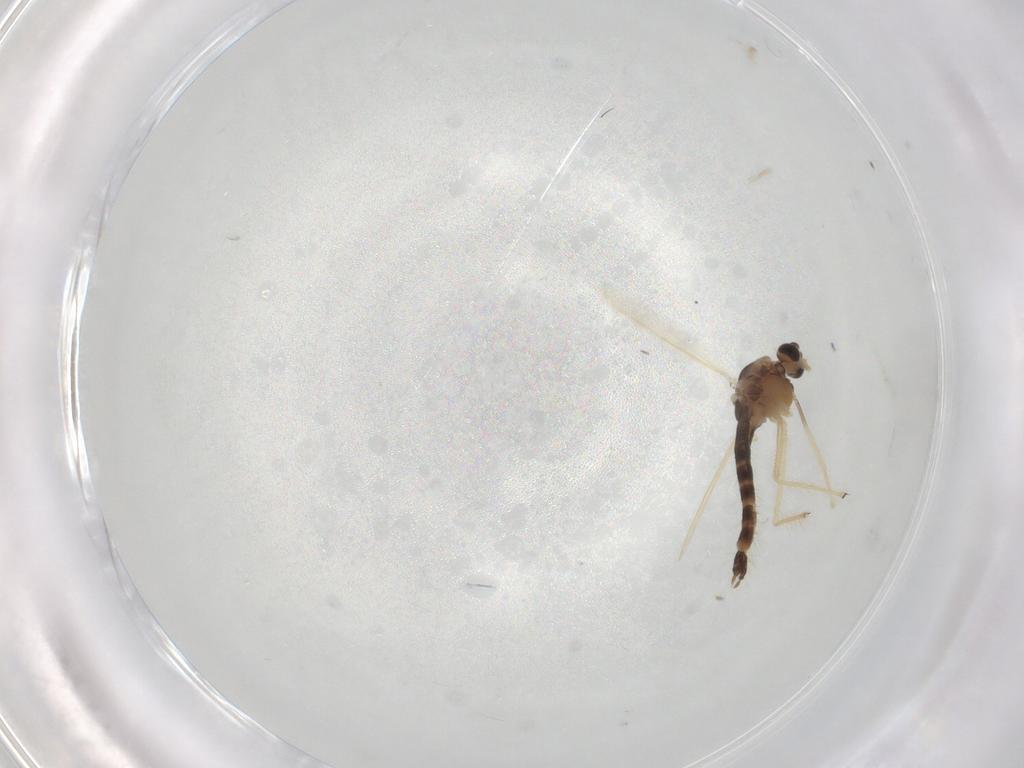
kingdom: Animalia
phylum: Arthropoda
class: Insecta
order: Diptera
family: Chironomidae
